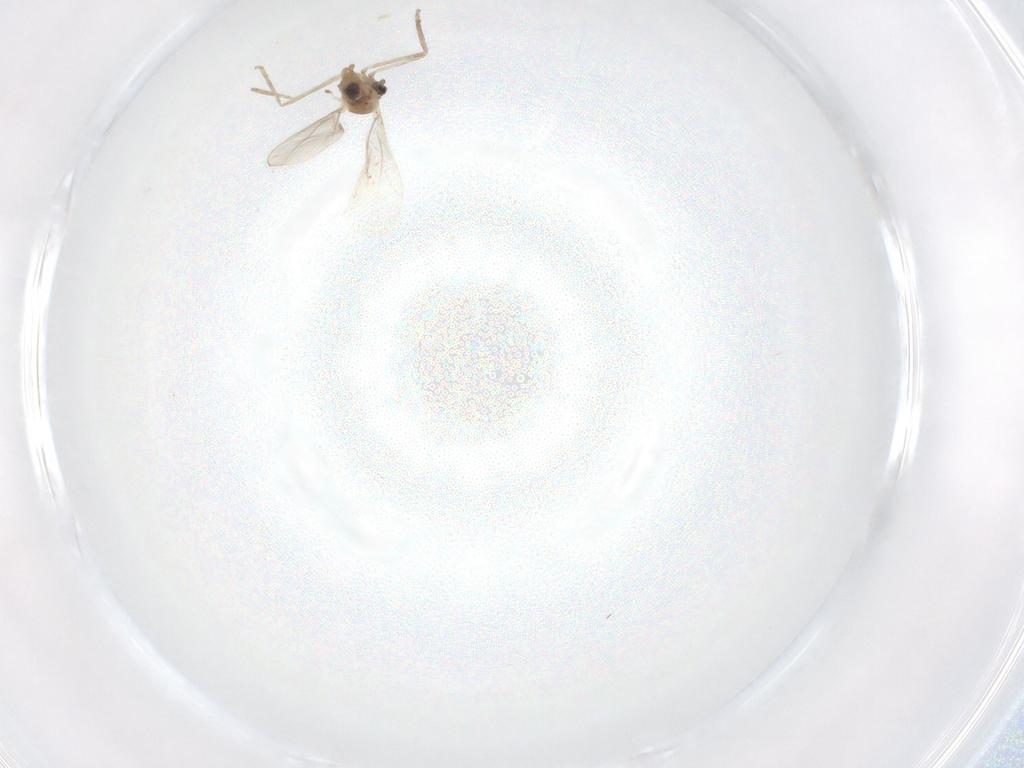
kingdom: Animalia
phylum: Arthropoda
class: Insecta
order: Diptera
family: Cecidomyiidae
